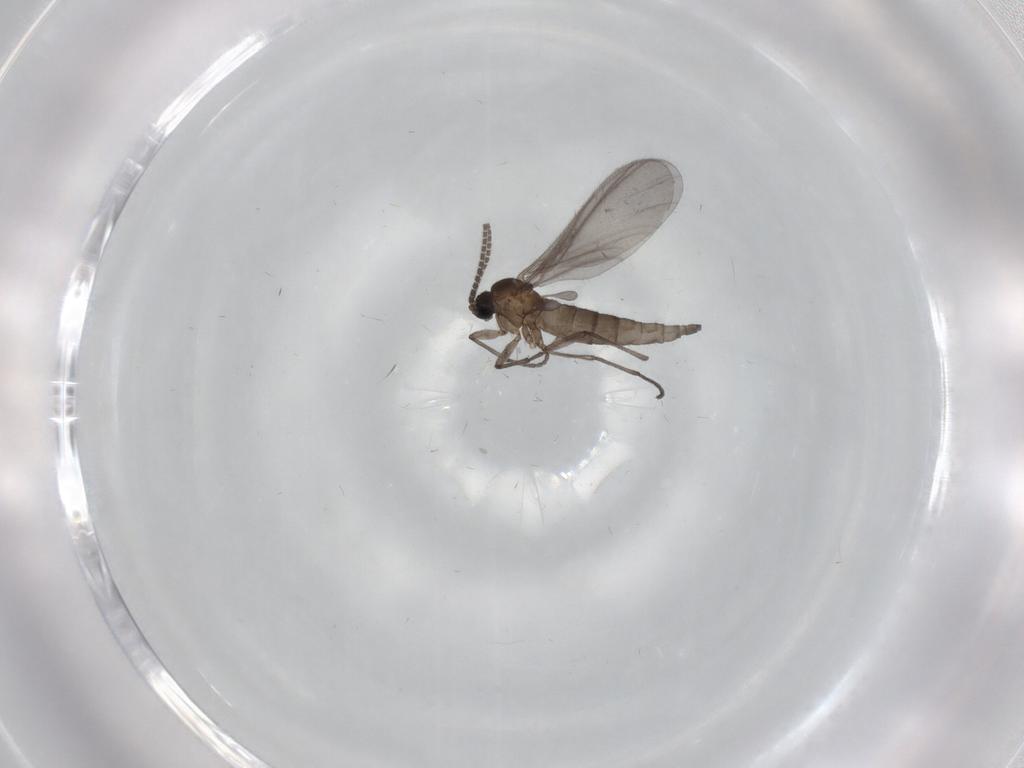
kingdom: Animalia
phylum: Arthropoda
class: Insecta
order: Diptera
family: Sciaridae
